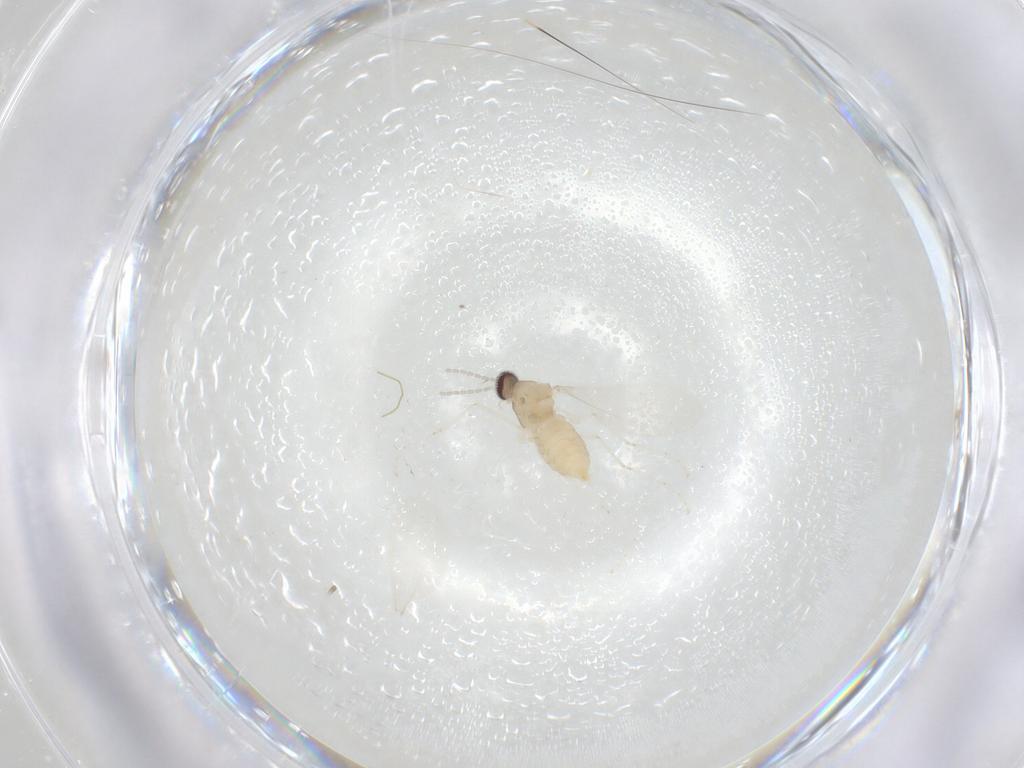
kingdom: Animalia
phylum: Arthropoda
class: Insecta
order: Diptera
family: Cecidomyiidae
